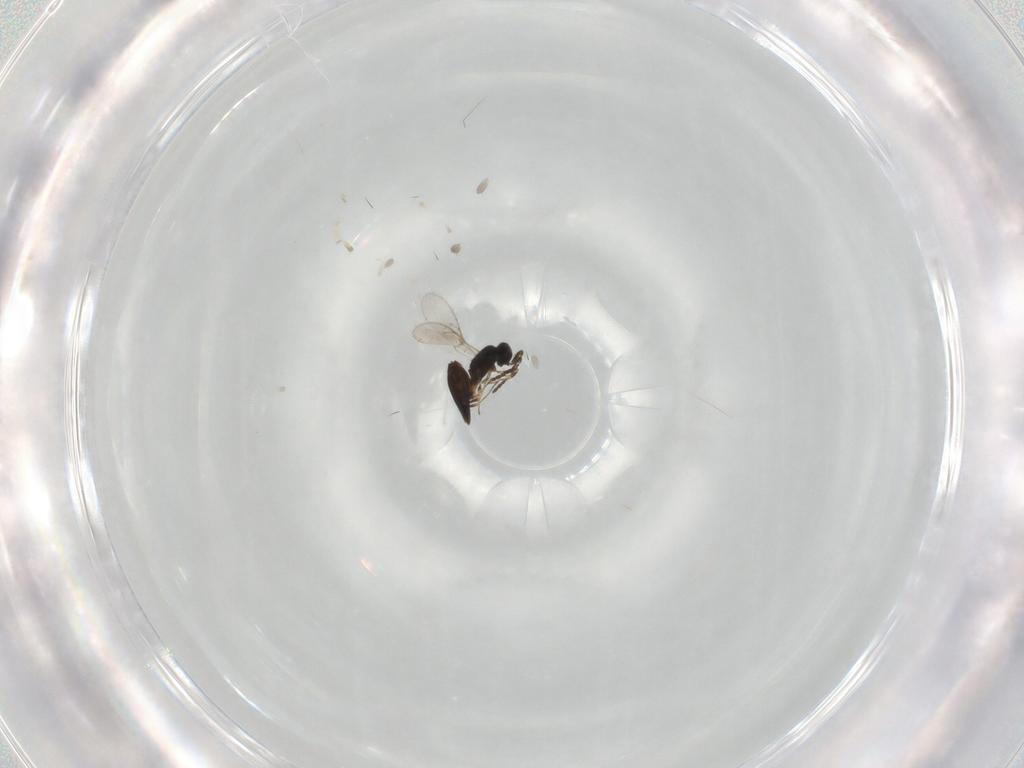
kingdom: Animalia
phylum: Arthropoda
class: Insecta
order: Hymenoptera
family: Scelionidae
